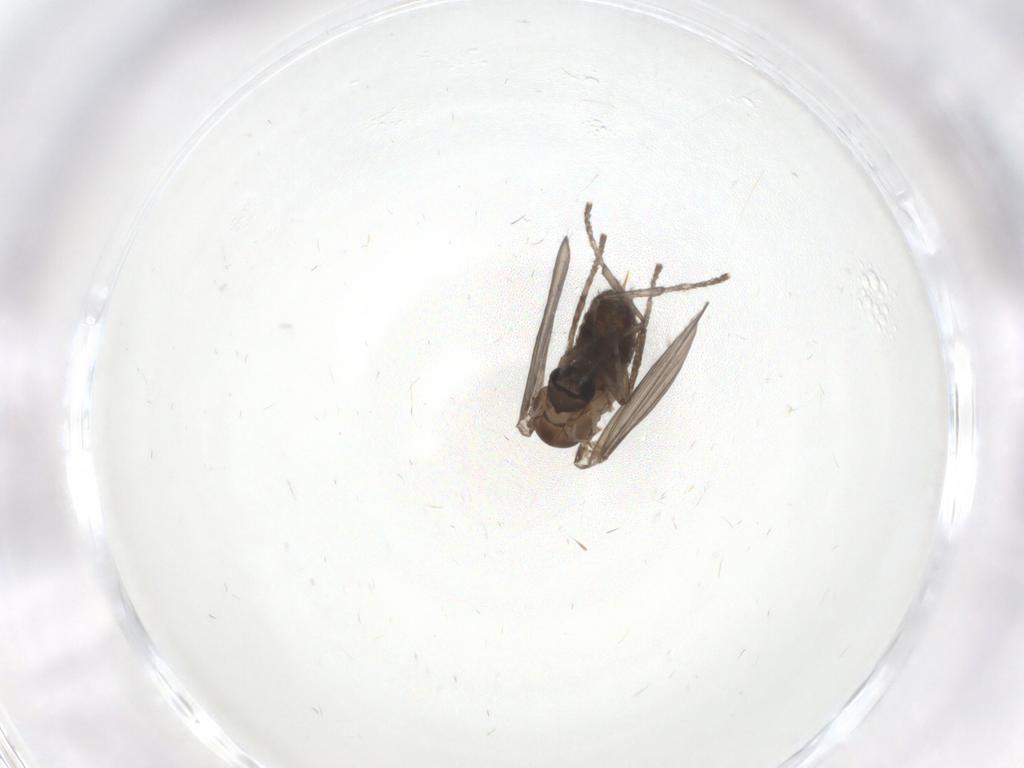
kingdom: Animalia
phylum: Arthropoda
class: Insecta
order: Diptera
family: Psychodidae
